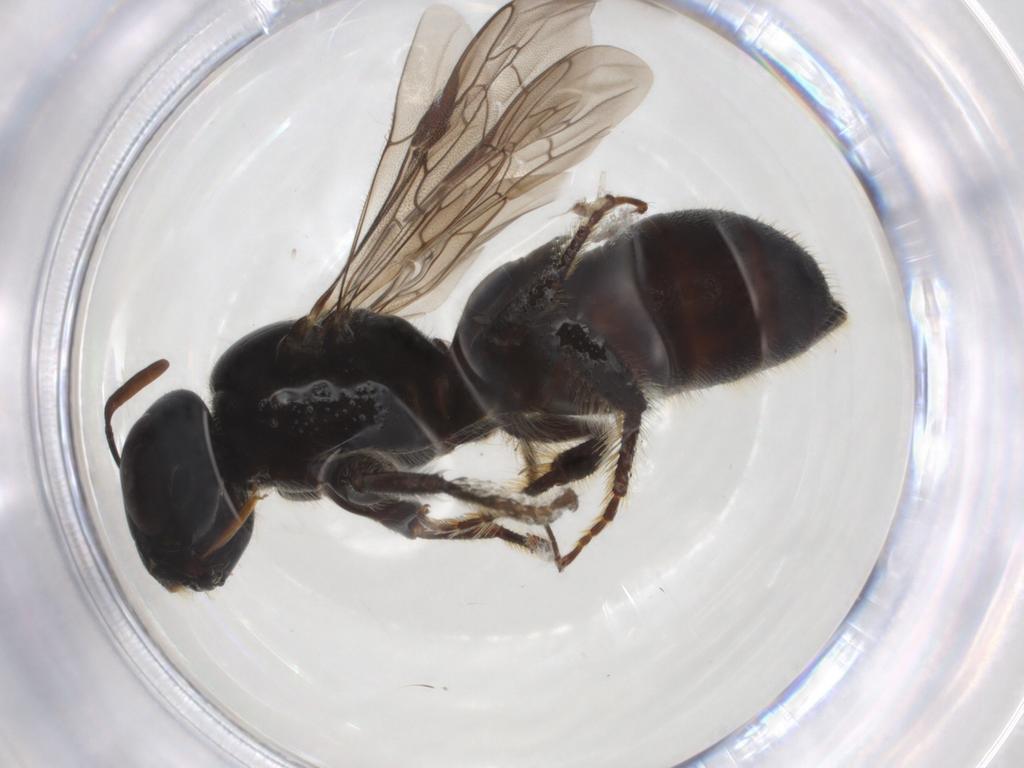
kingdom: Animalia
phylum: Arthropoda
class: Insecta
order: Hymenoptera
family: Apidae
